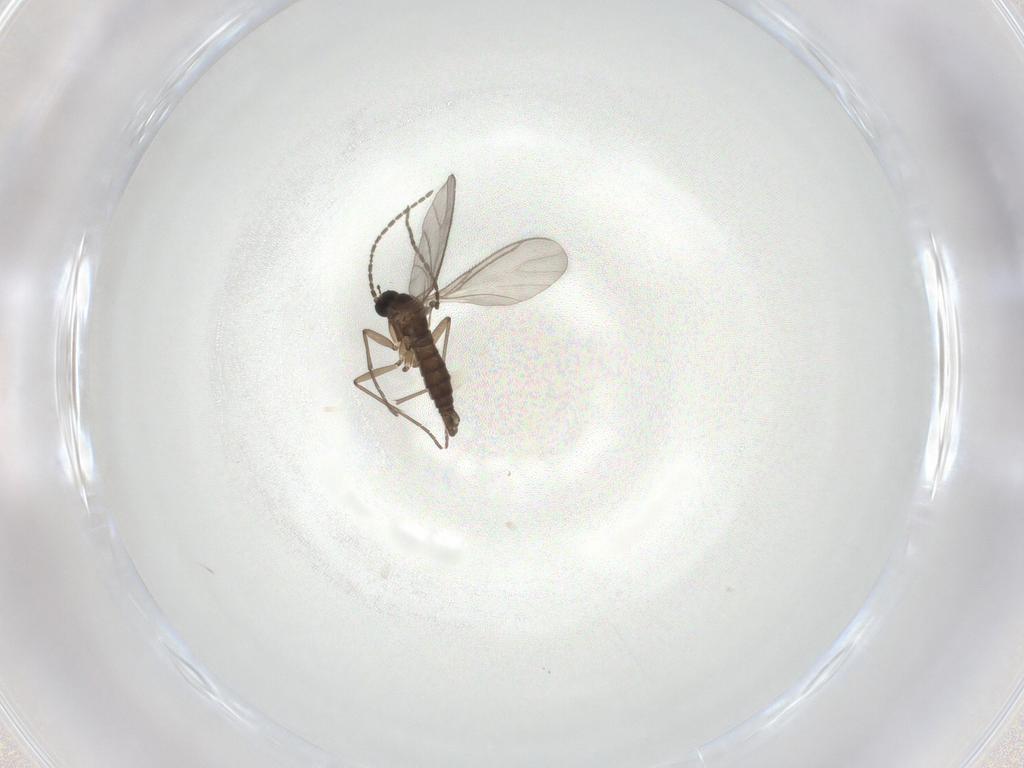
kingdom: Animalia
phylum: Arthropoda
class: Insecta
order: Diptera
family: Sciaridae
